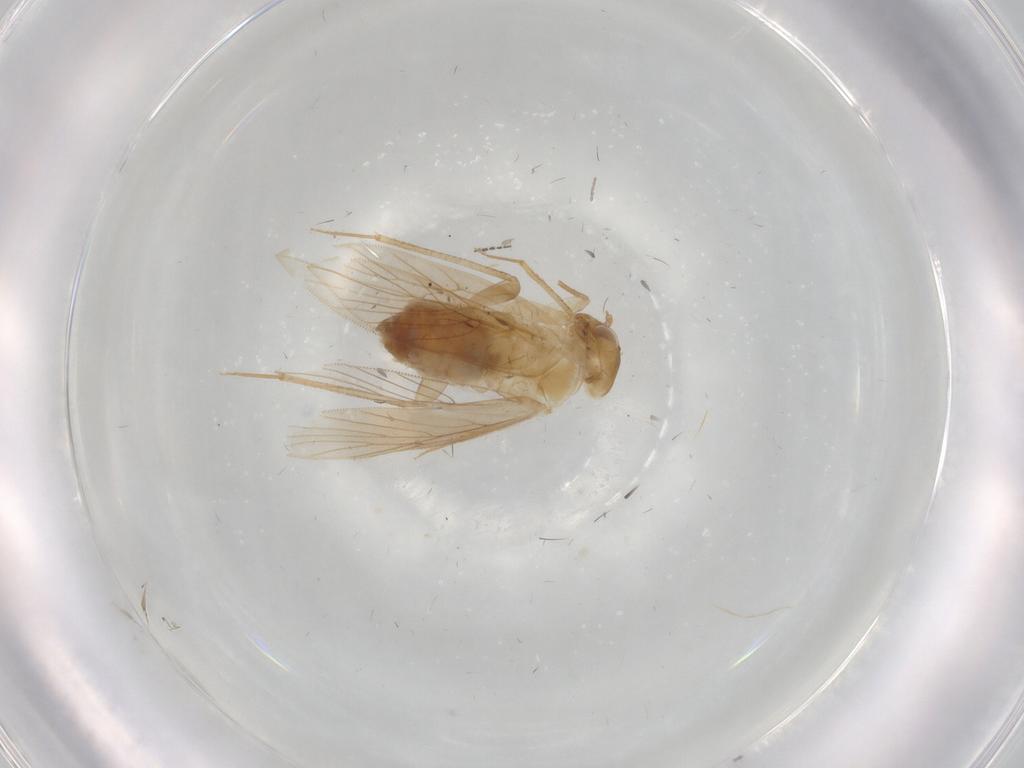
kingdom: Animalia
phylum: Arthropoda
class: Insecta
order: Psocodea
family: Lepidopsocidae
